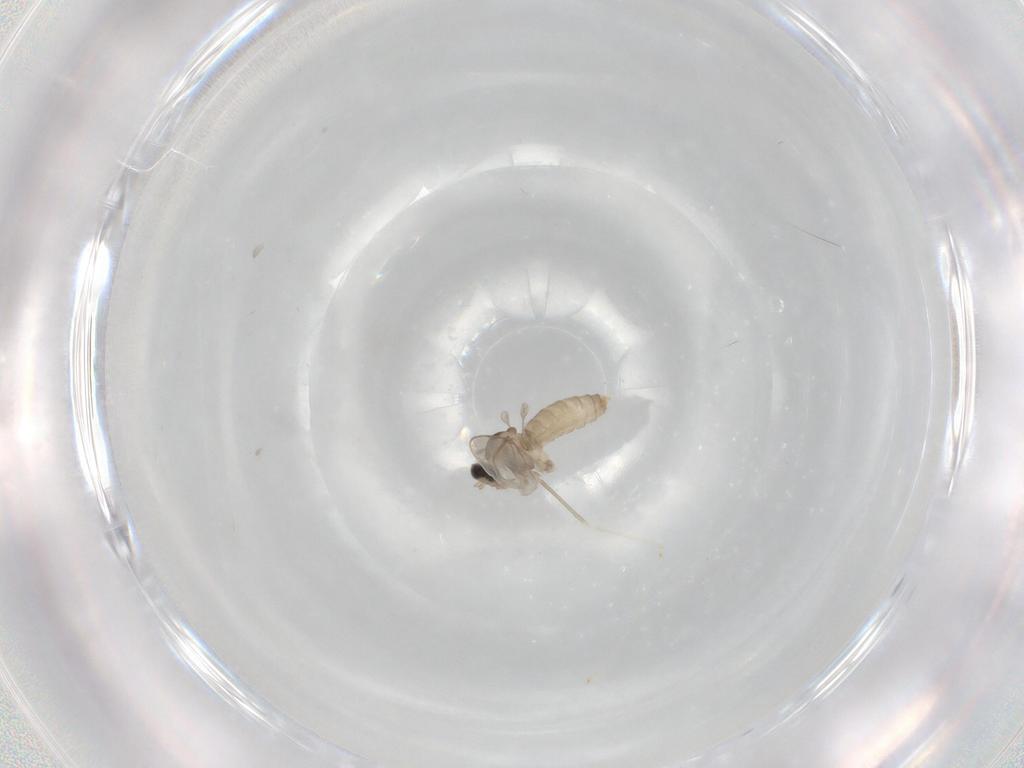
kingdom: Animalia
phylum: Arthropoda
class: Insecta
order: Diptera
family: Cecidomyiidae
